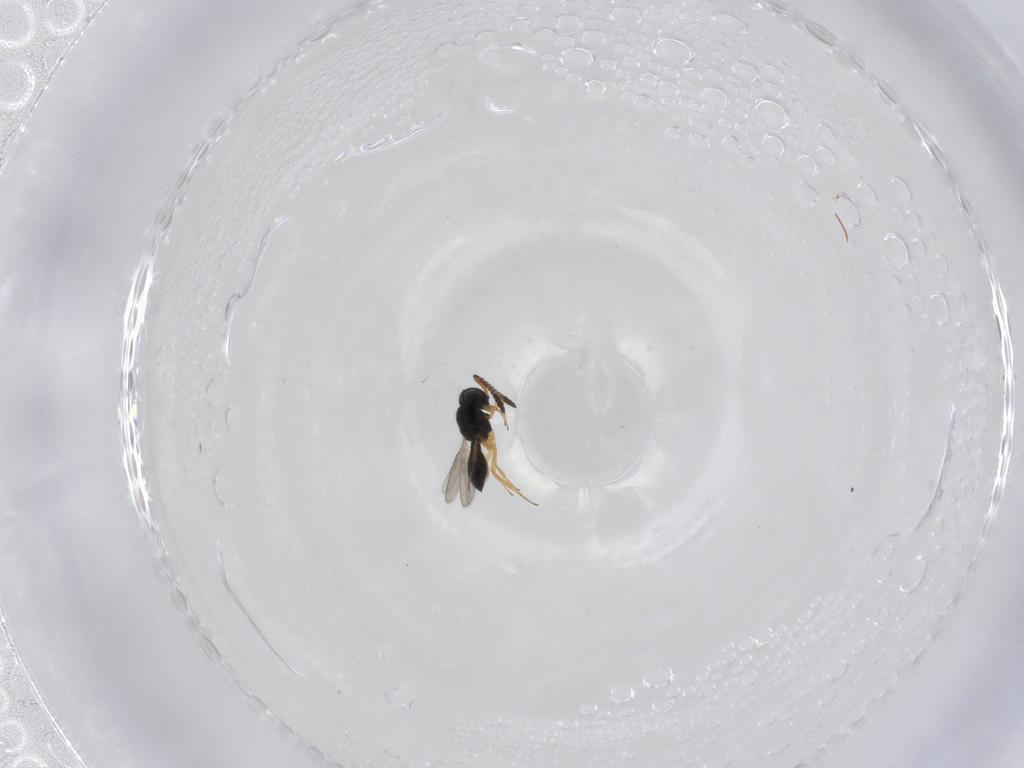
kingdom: Animalia
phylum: Arthropoda
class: Insecta
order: Hymenoptera
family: Scelionidae
